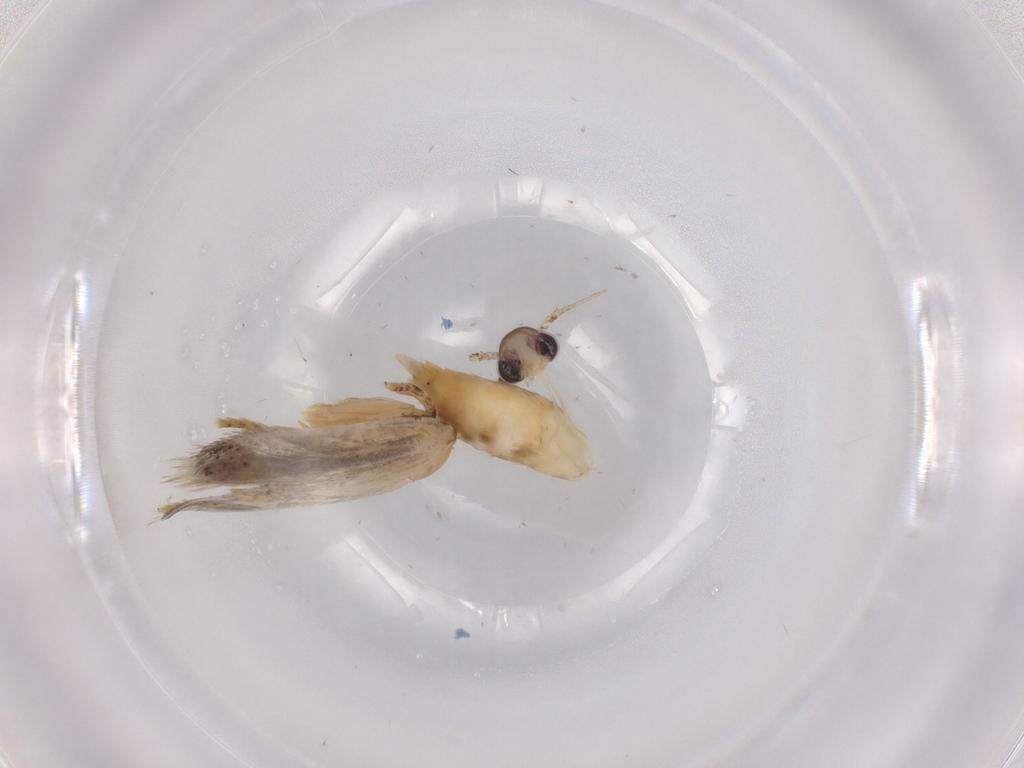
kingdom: Animalia
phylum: Arthropoda
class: Insecta
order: Lepidoptera
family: Autostichidae
